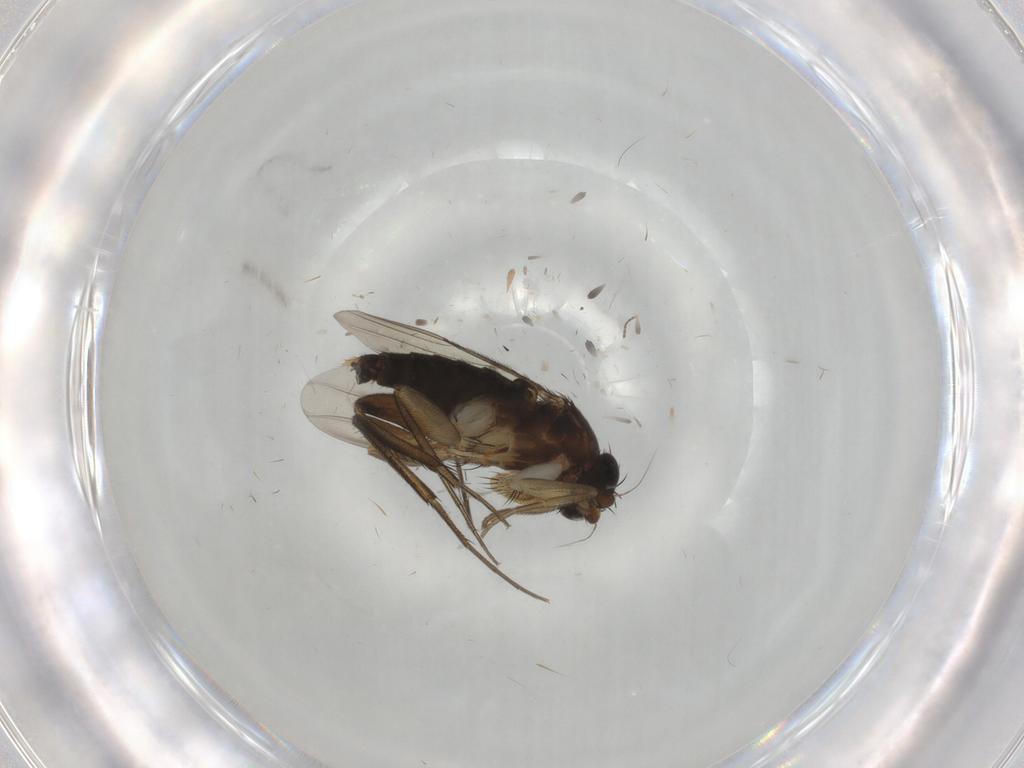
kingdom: Animalia
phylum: Arthropoda
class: Insecta
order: Diptera
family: Phoridae
